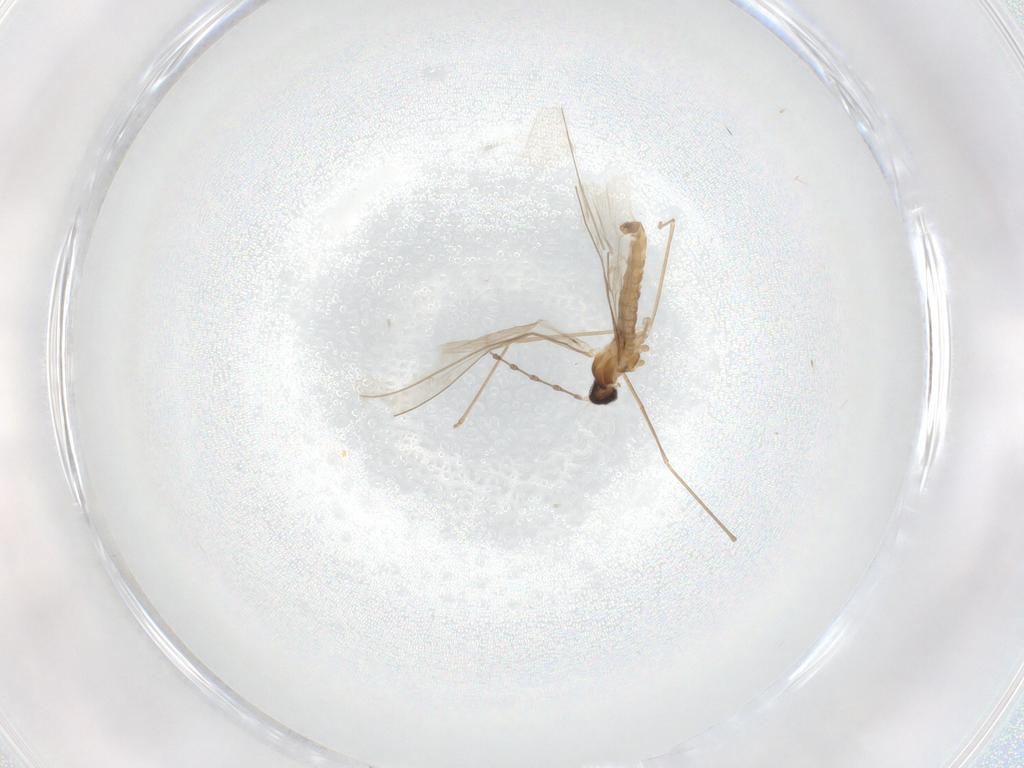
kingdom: Animalia
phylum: Arthropoda
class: Insecta
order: Diptera
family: Cecidomyiidae
